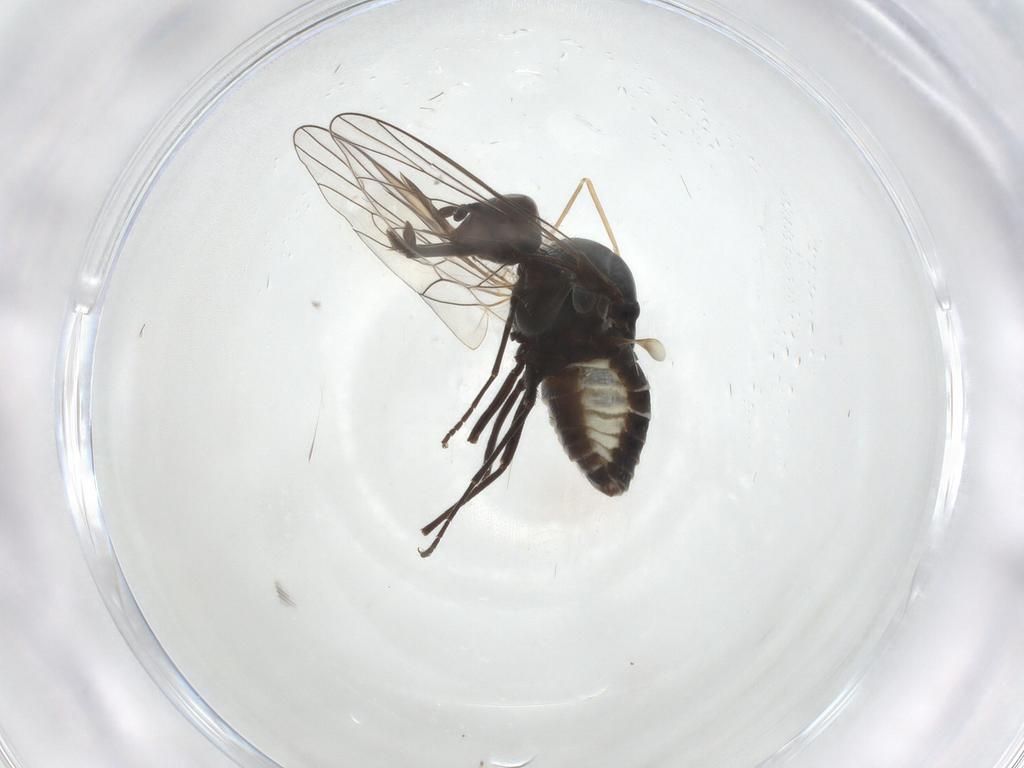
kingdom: Animalia
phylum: Arthropoda
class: Insecta
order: Diptera
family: Bombyliidae
